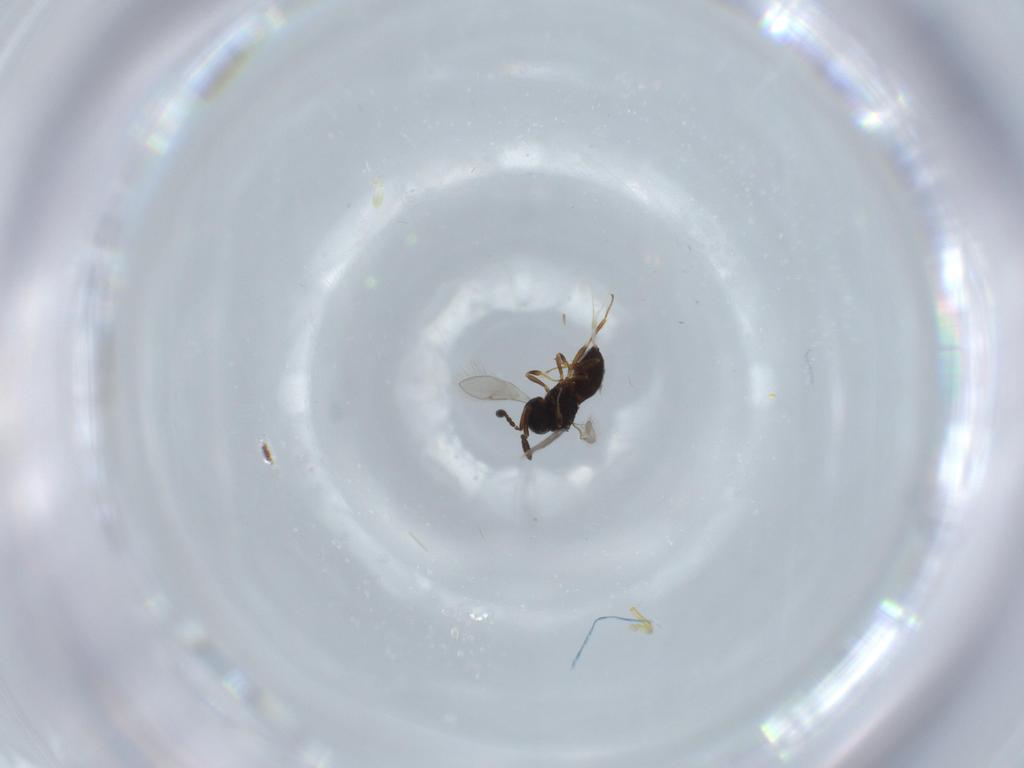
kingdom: Animalia
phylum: Arthropoda
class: Insecta
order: Hymenoptera
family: Scelionidae
